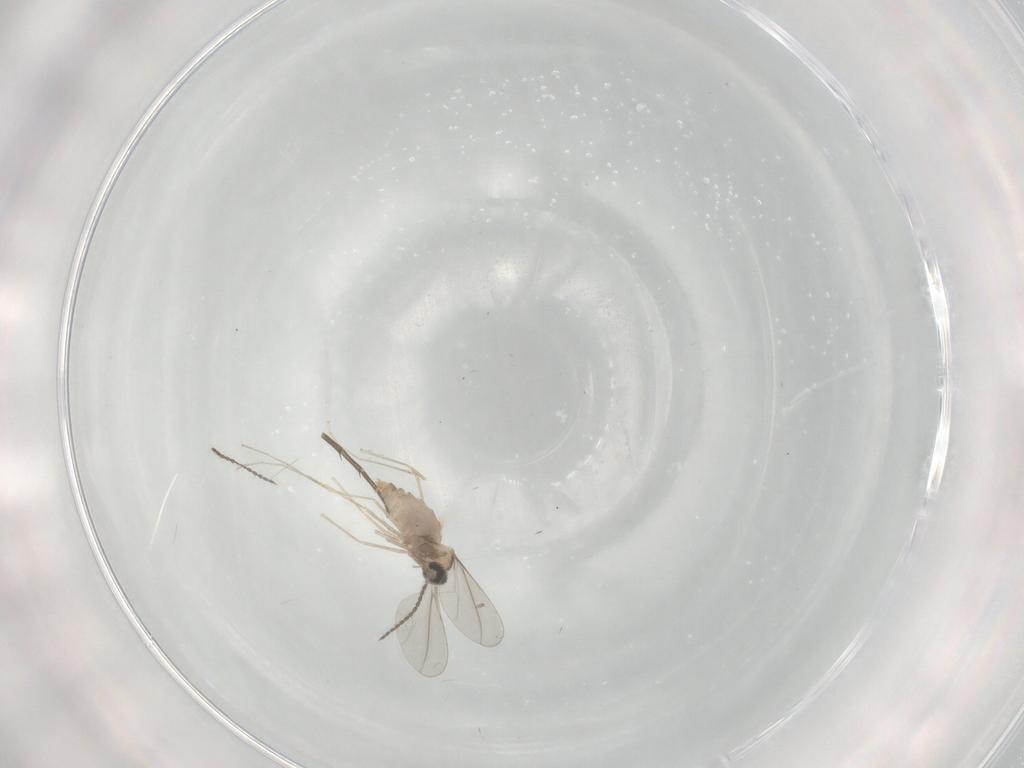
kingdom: Animalia
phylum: Arthropoda
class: Insecta
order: Diptera
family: Cecidomyiidae
